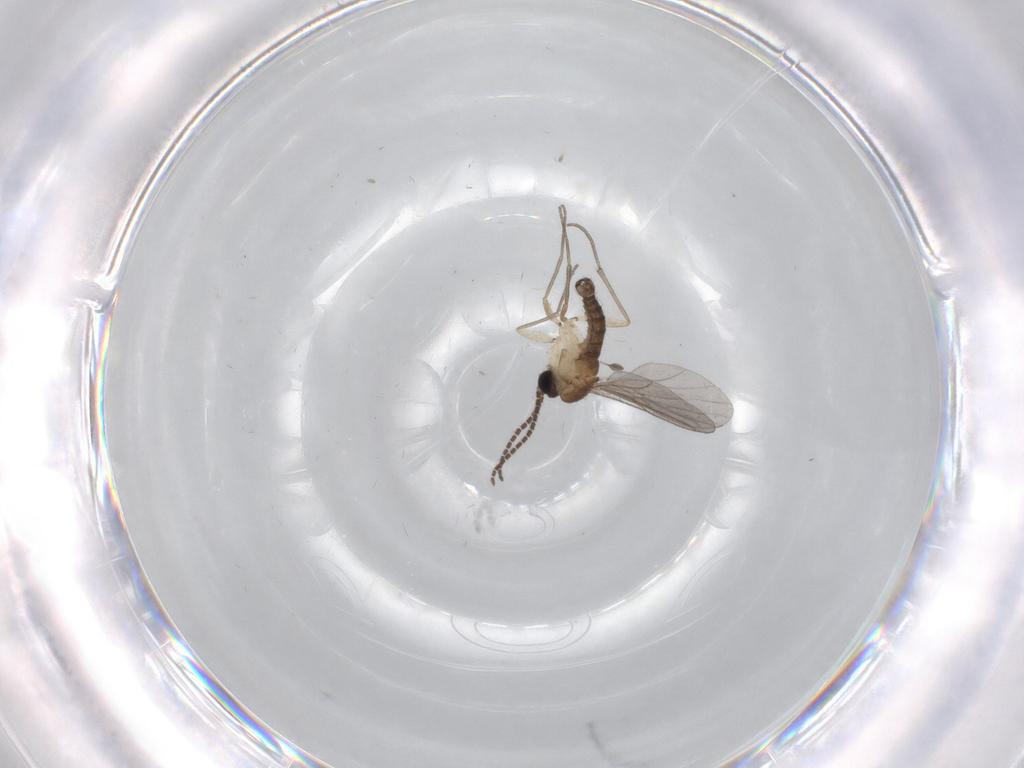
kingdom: Animalia
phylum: Arthropoda
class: Insecta
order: Diptera
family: Sciaridae
